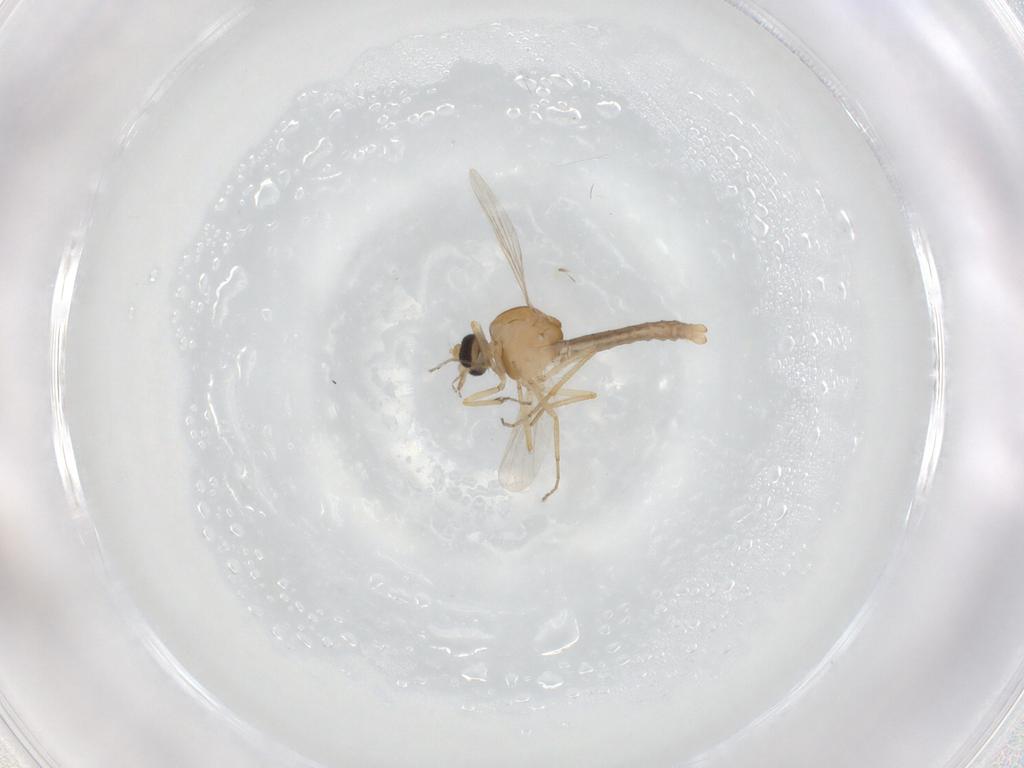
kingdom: Animalia
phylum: Arthropoda
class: Insecta
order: Diptera
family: Ceratopogonidae
